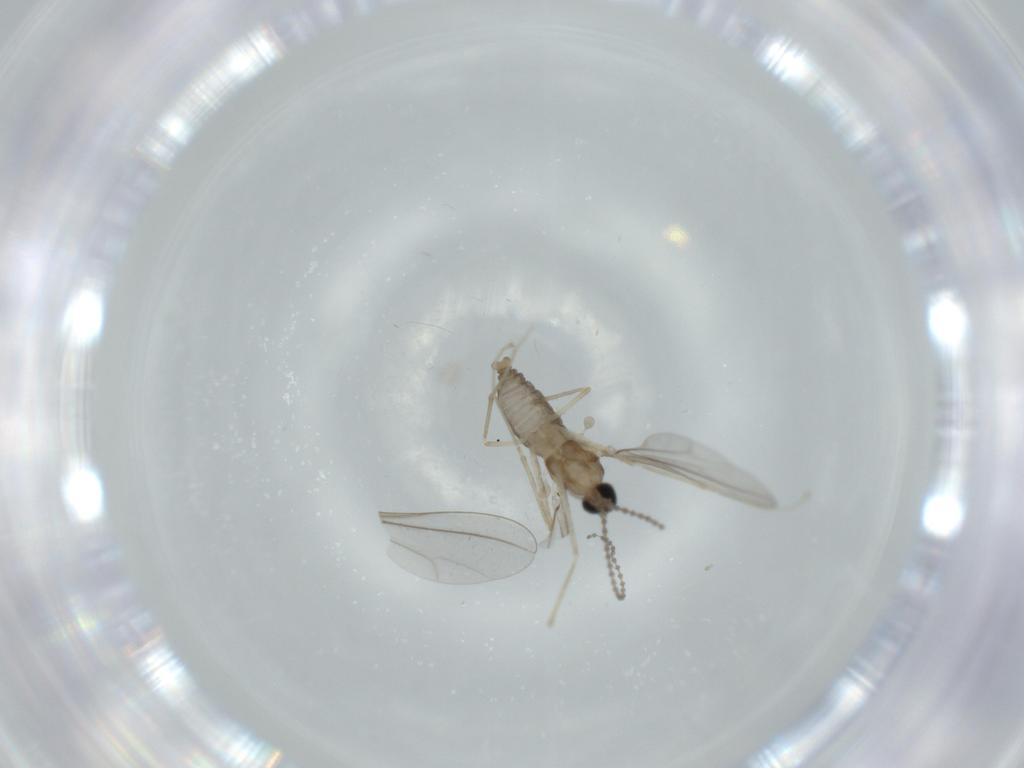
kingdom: Animalia
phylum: Arthropoda
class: Insecta
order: Diptera
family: Cecidomyiidae
